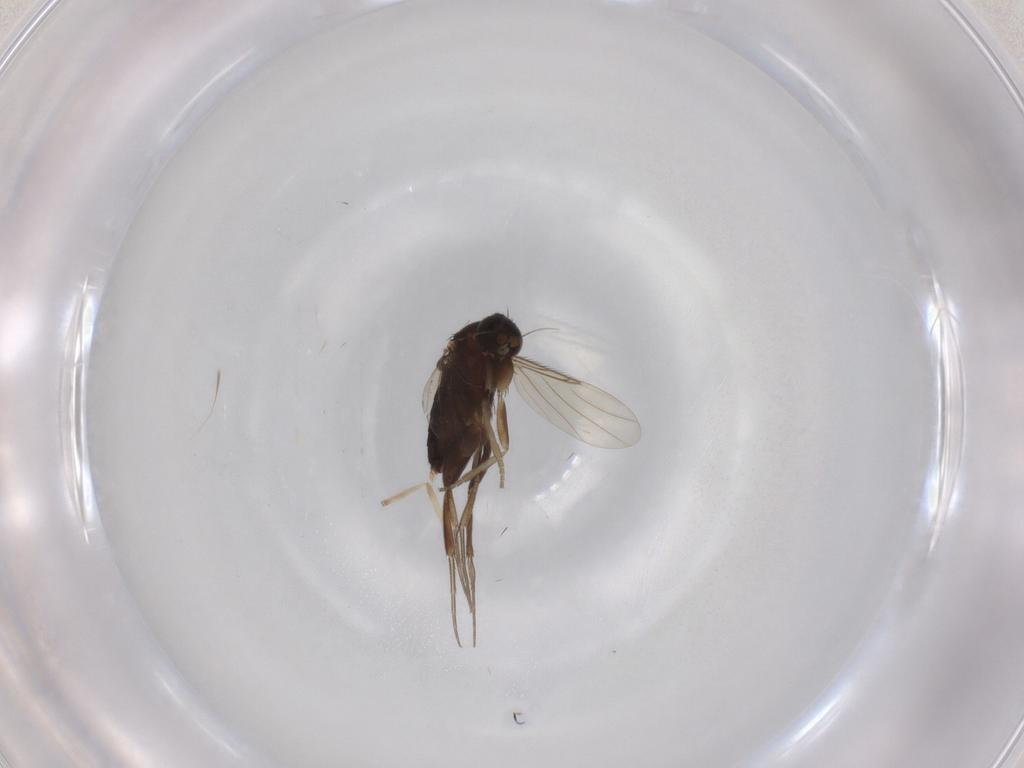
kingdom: Animalia
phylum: Arthropoda
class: Insecta
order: Diptera
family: Phoridae
